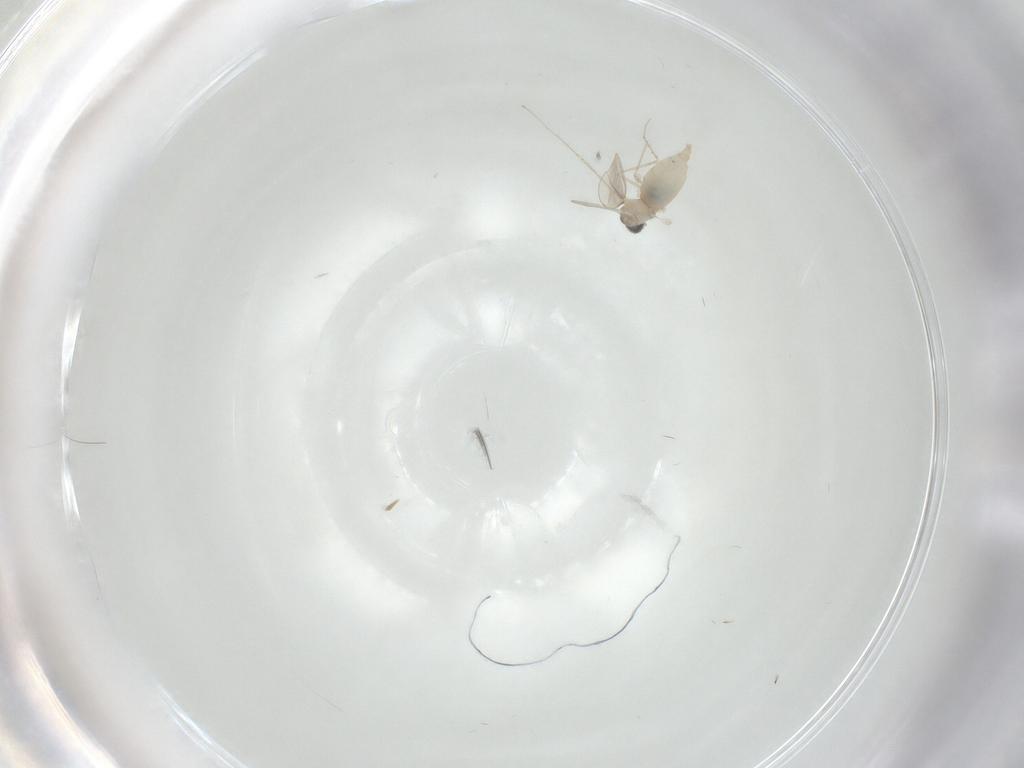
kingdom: Animalia
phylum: Arthropoda
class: Insecta
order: Diptera
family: Cecidomyiidae
